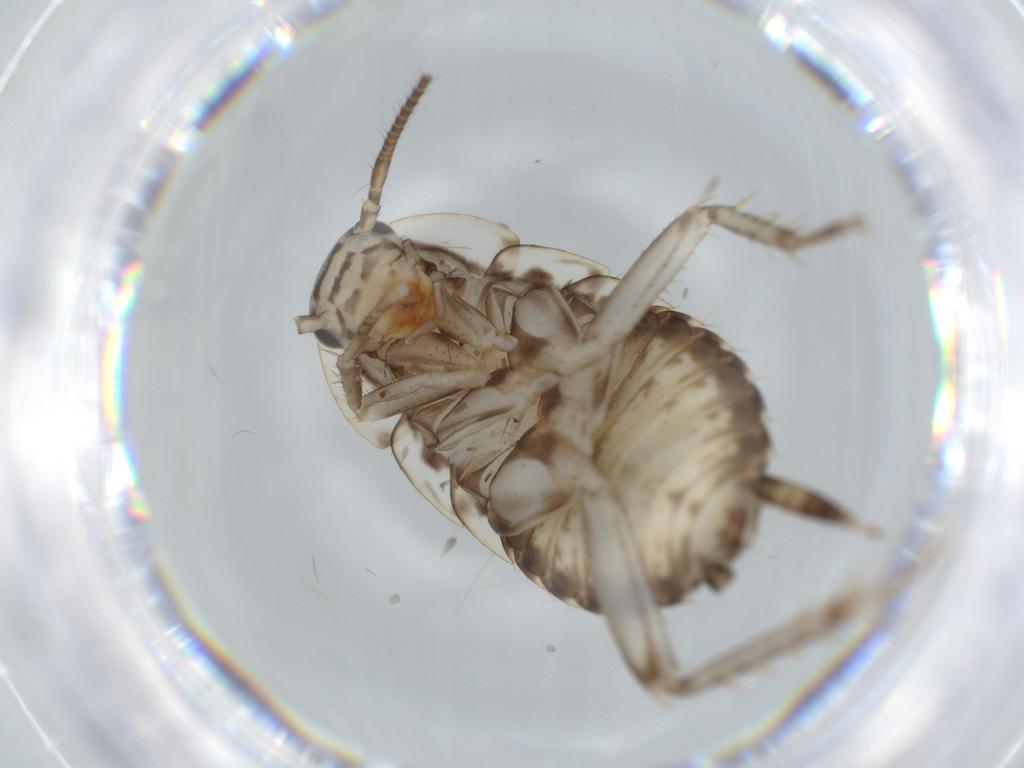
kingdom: Animalia
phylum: Arthropoda
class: Insecta
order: Blattodea
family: Ectobiidae
